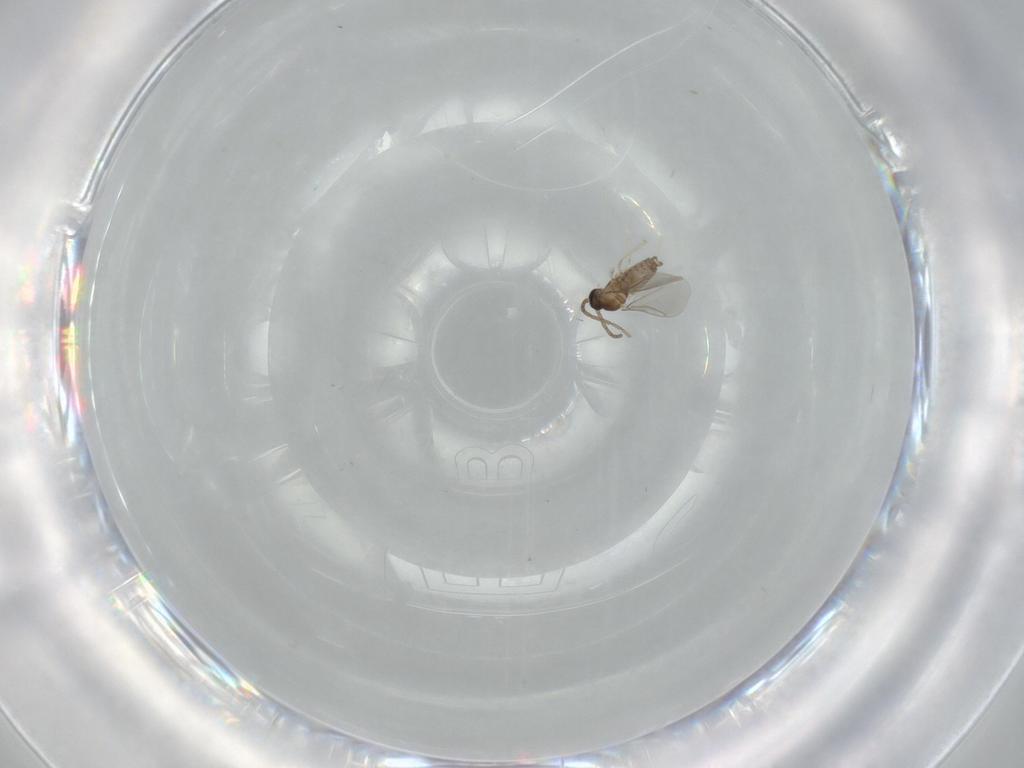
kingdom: Animalia
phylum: Arthropoda
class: Insecta
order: Diptera
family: Cecidomyiidae
